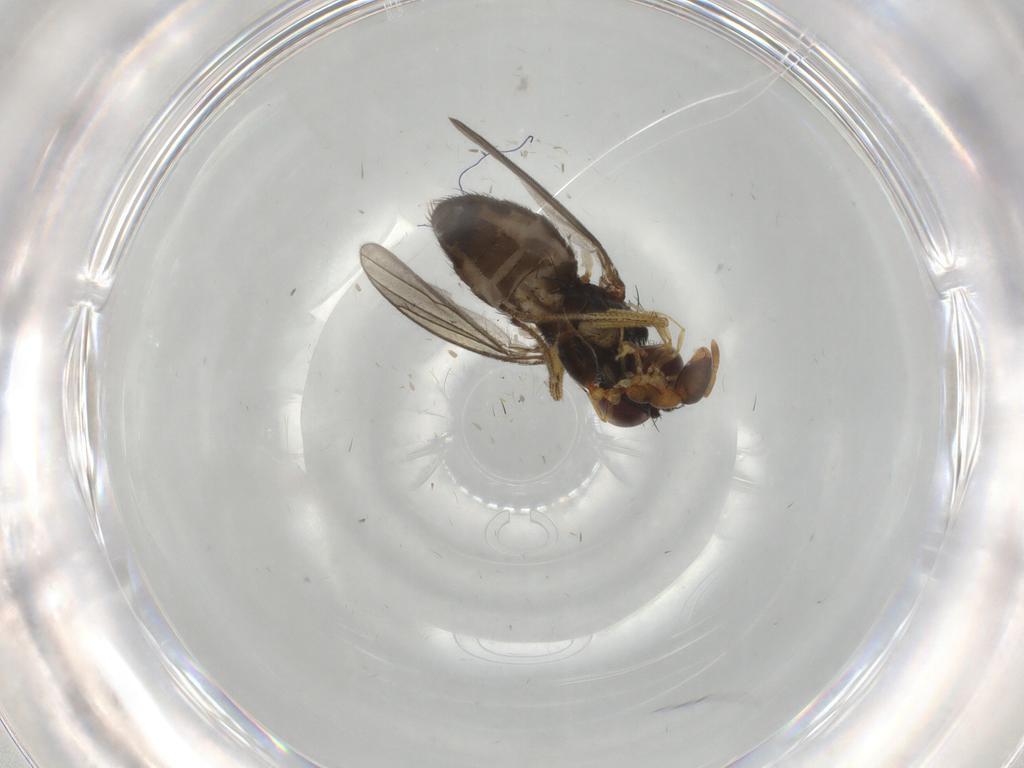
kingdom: Animalia
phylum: Arthropoda
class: Insecta
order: Diptera
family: Dolichopodidae
